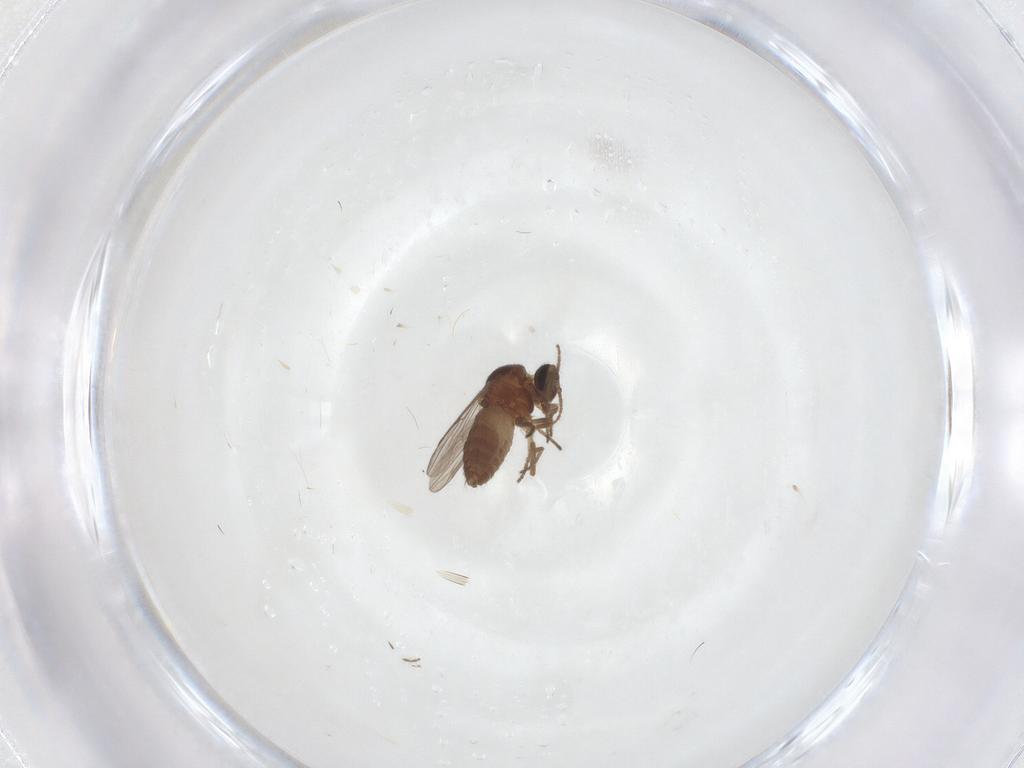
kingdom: Animalia
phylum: Arthropoda
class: Insecta
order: Diptera
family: Ceratopogonidae
